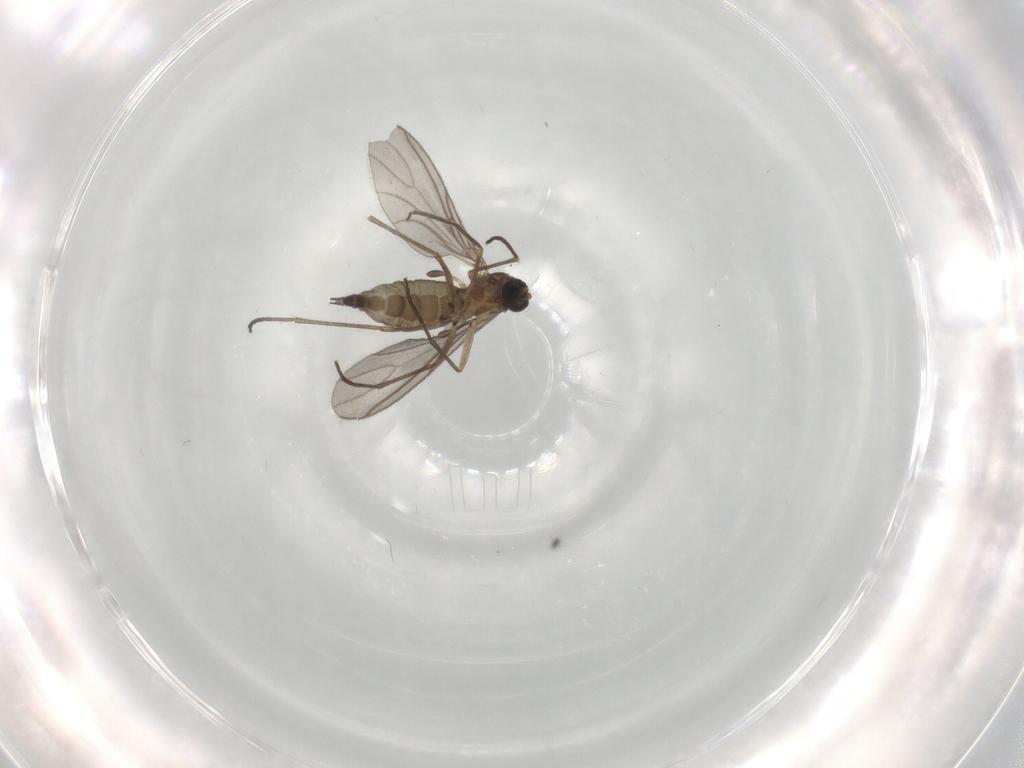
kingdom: Animalia
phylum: Arthropoda
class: Insecta
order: Diptera
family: Sciaridae
